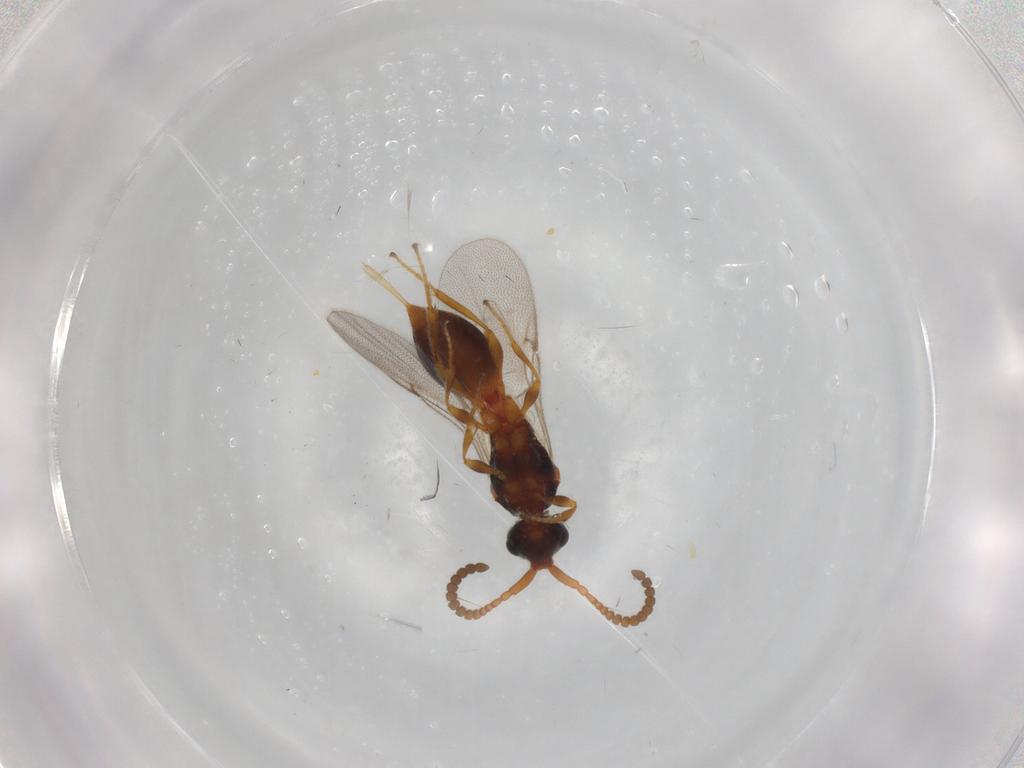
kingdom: Animalia
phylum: Arthropoda
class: Insecta
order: Hymenoptera
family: Diapriidae
